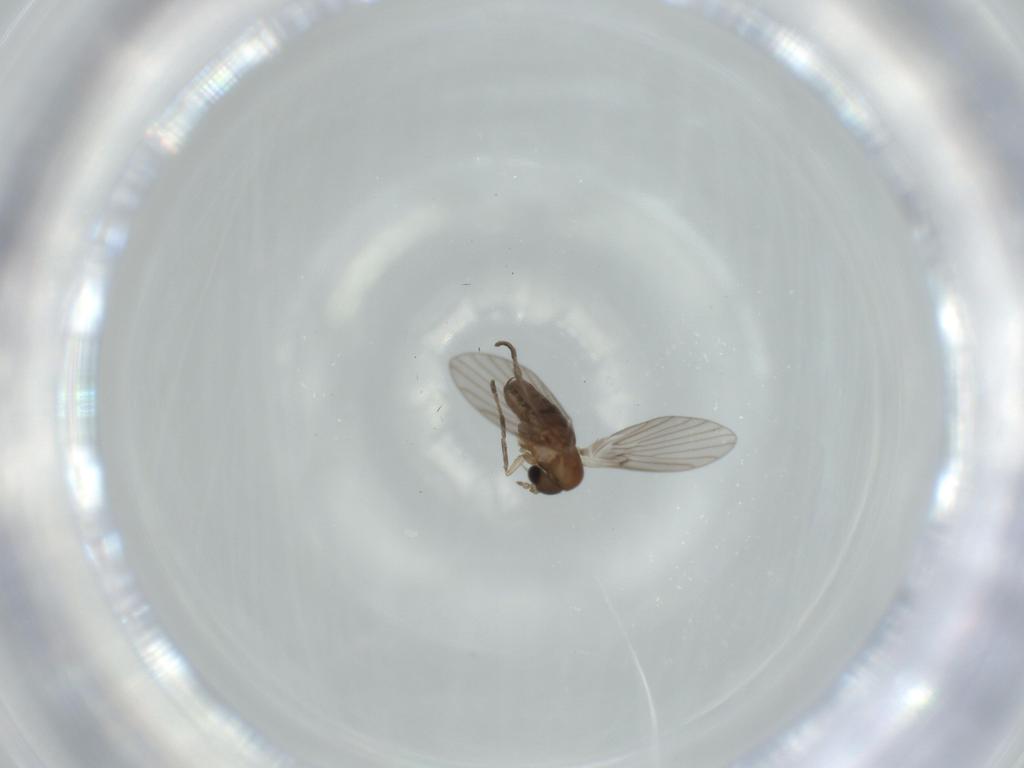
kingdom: Animalia
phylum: Arthropoda
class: Insecta
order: Diptera
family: Psychodidae
